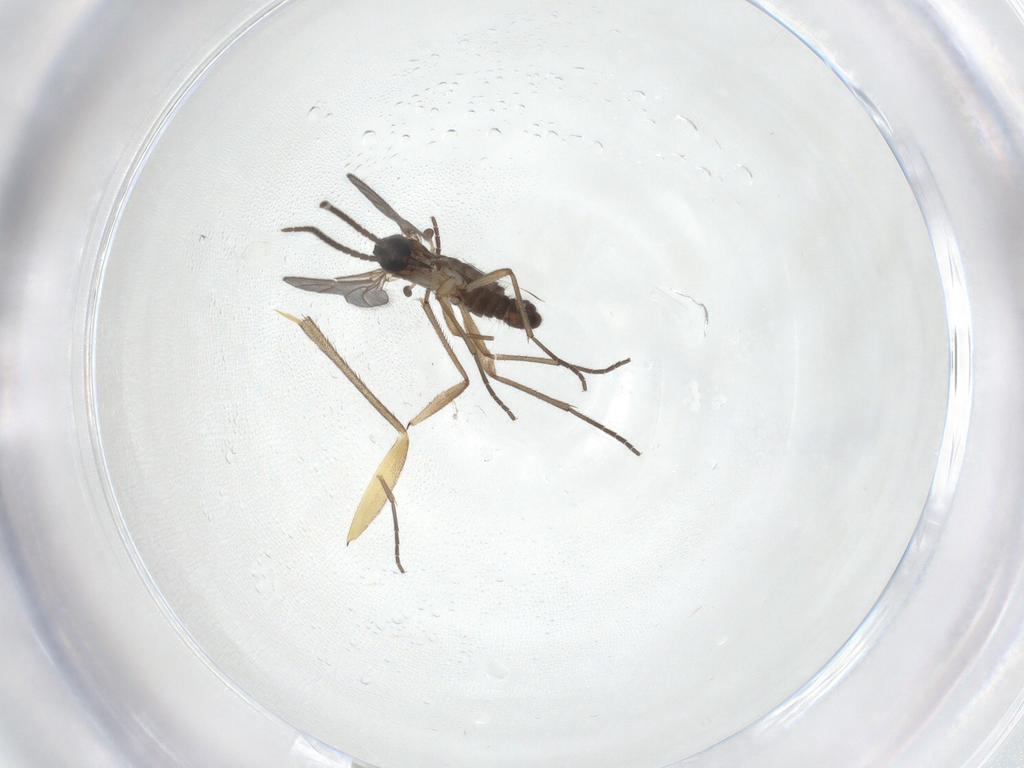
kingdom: Animalia
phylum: Arthropoda
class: Insecta
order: Diptera
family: Sciaridae
